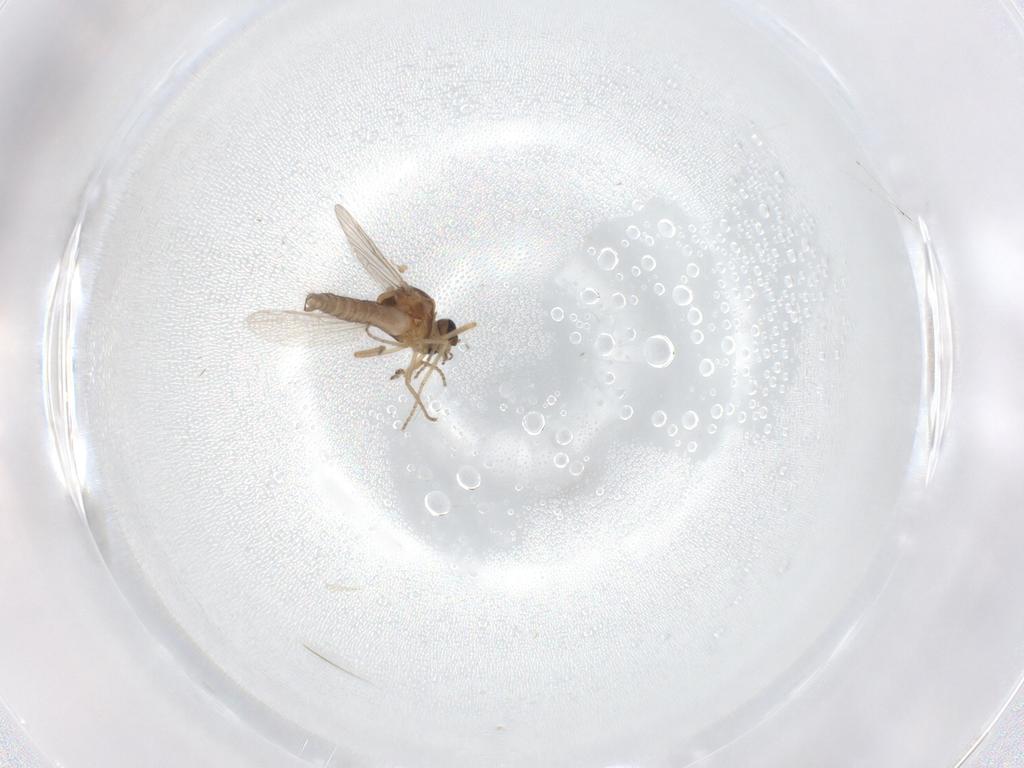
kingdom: Animalia
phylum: Arthropoda
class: Insecta
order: Diptera
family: Ceratopogonidae
